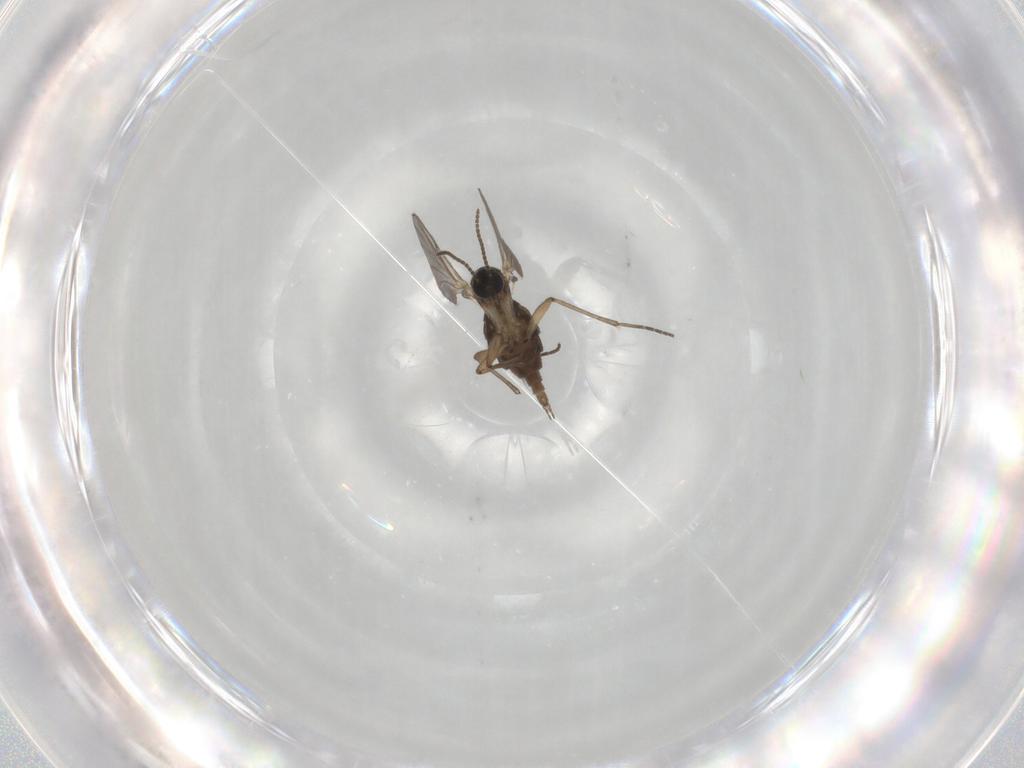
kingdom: Animalia
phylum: Arthropoda
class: Insecta
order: Diptera
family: Sciaridae
